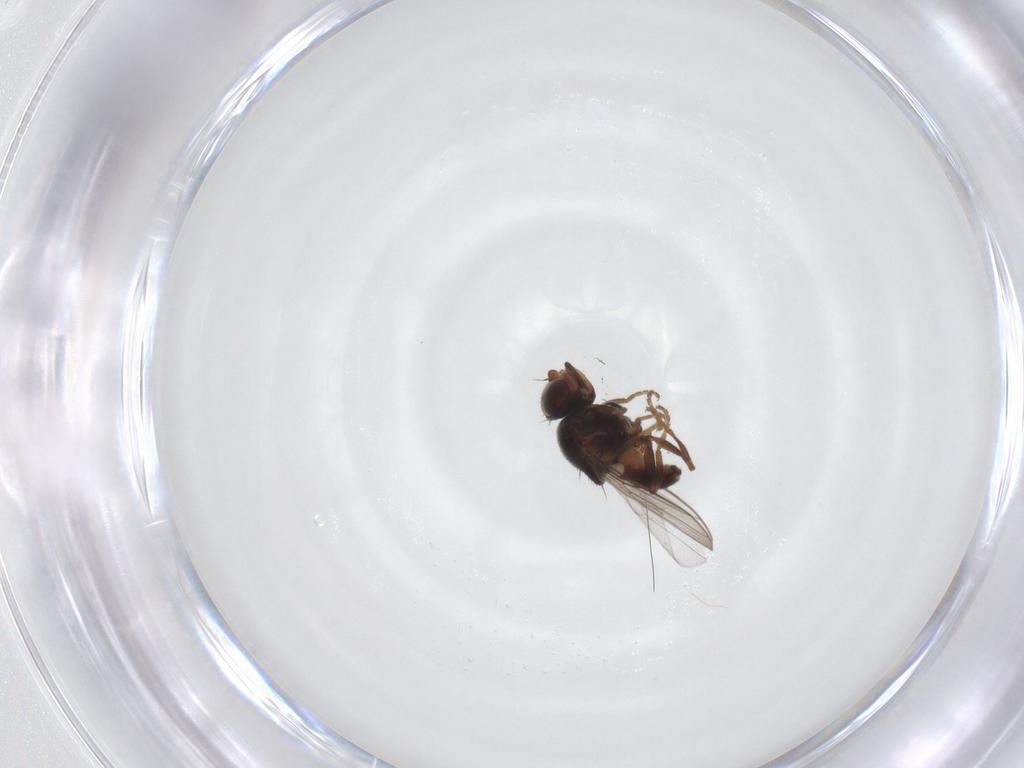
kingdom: Animalia
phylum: Arthropoda
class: Insecta
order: Diptera
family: Chloropidae
